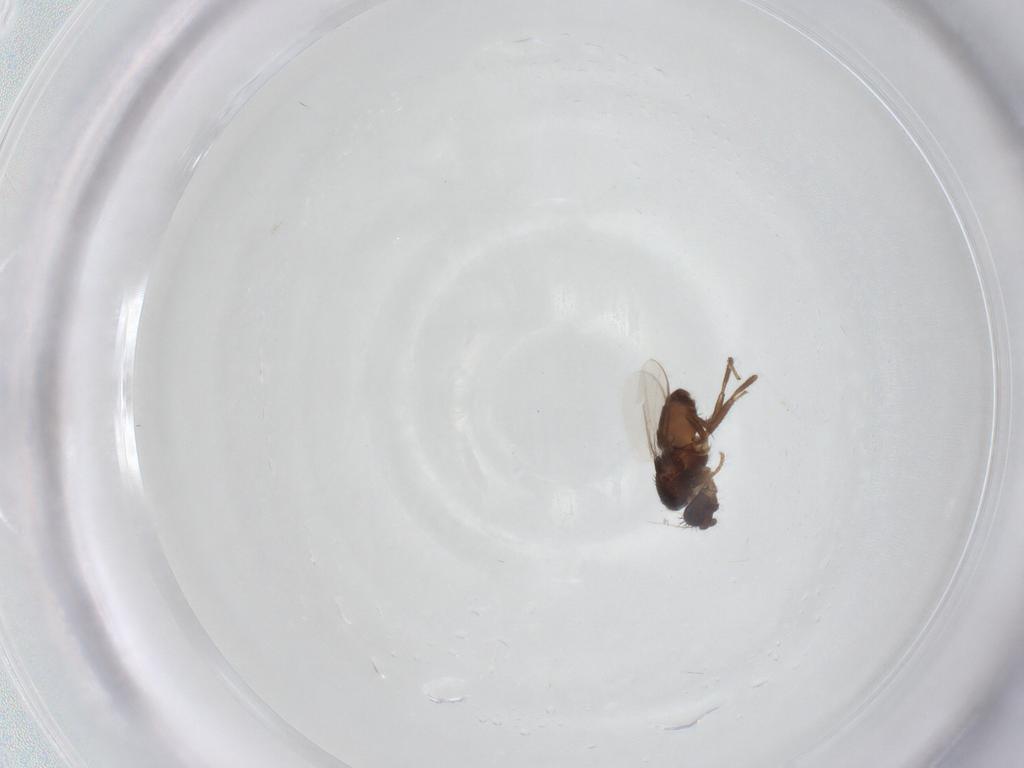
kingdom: Animalia
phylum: Arthropoda
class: Insecta
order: Diptera
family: Sphaeroceridae
